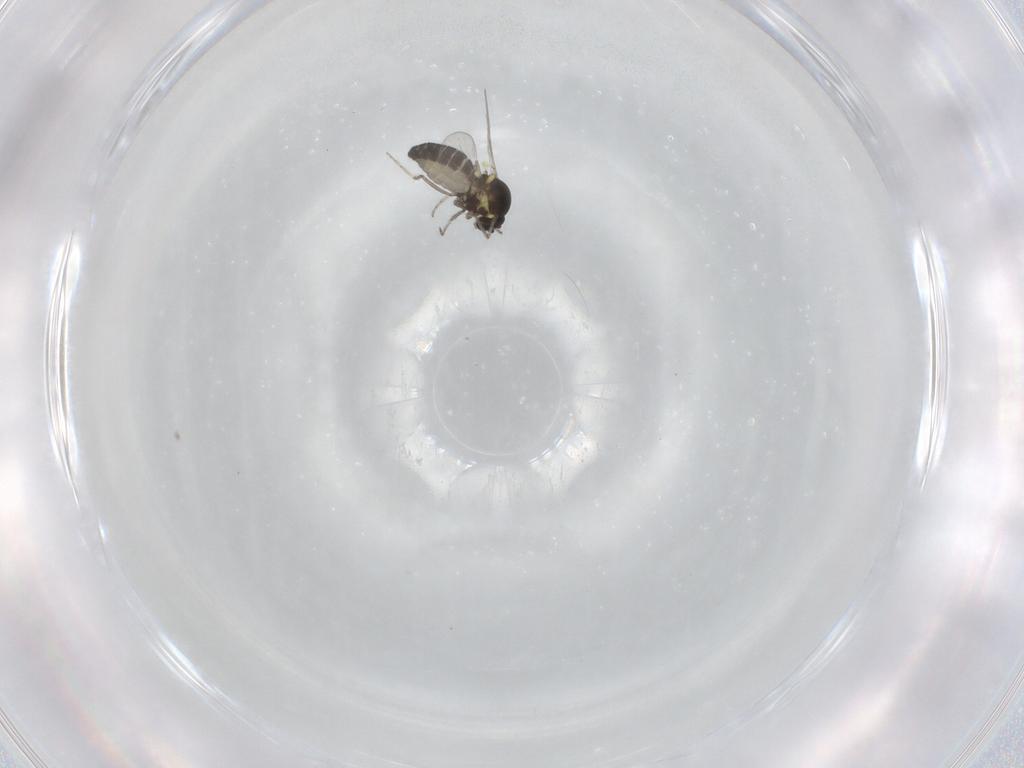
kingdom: Animalia
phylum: Arthropoda
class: Insecta
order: Diptera
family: Ceratopogonidae
